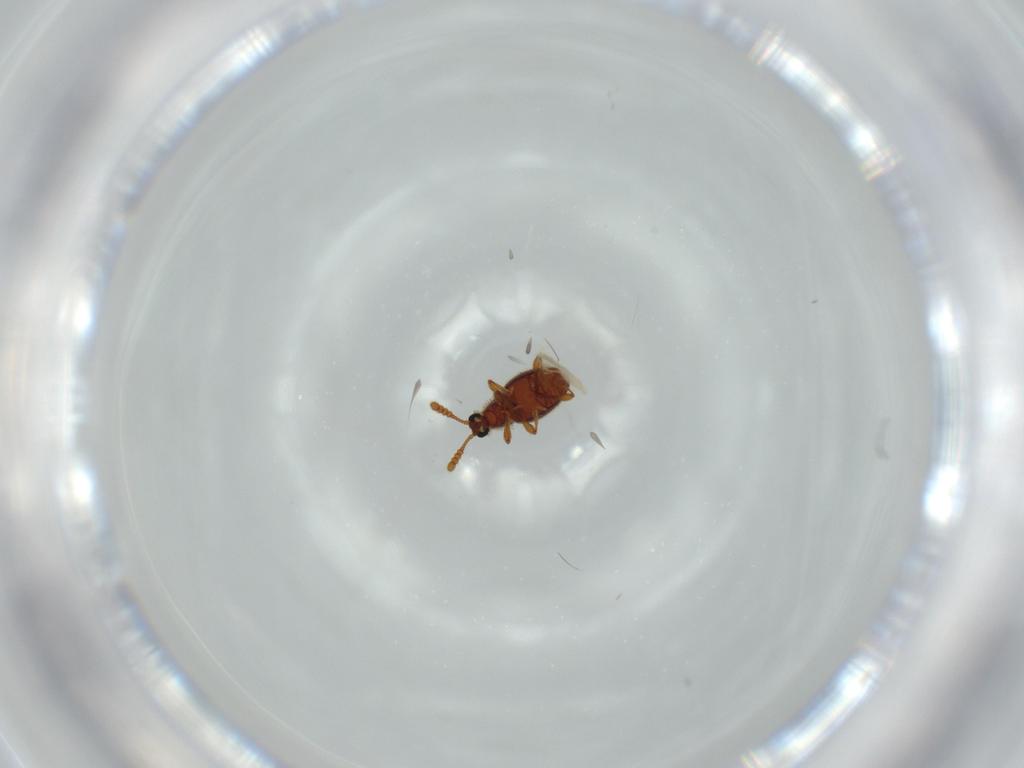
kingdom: Animalia
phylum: Arthropoda
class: Insecta
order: Coleoptera
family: Staphylinidae
